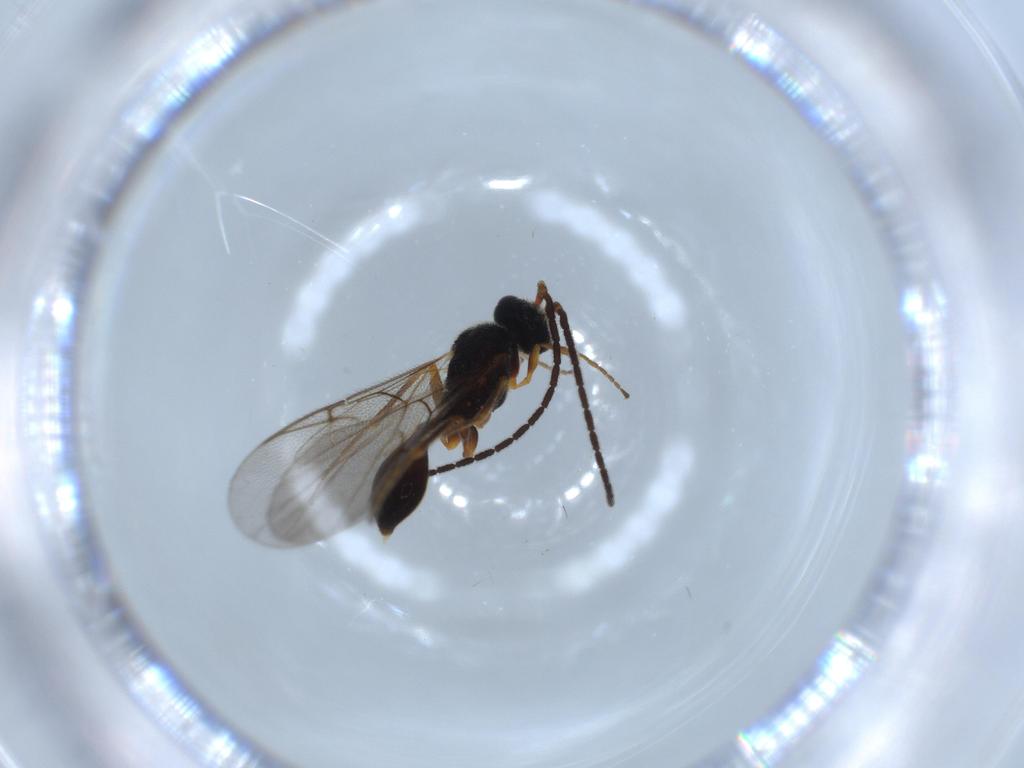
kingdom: Animalia
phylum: Arthropoda
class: Insecta
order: Hymenoptera
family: Diapriidae
